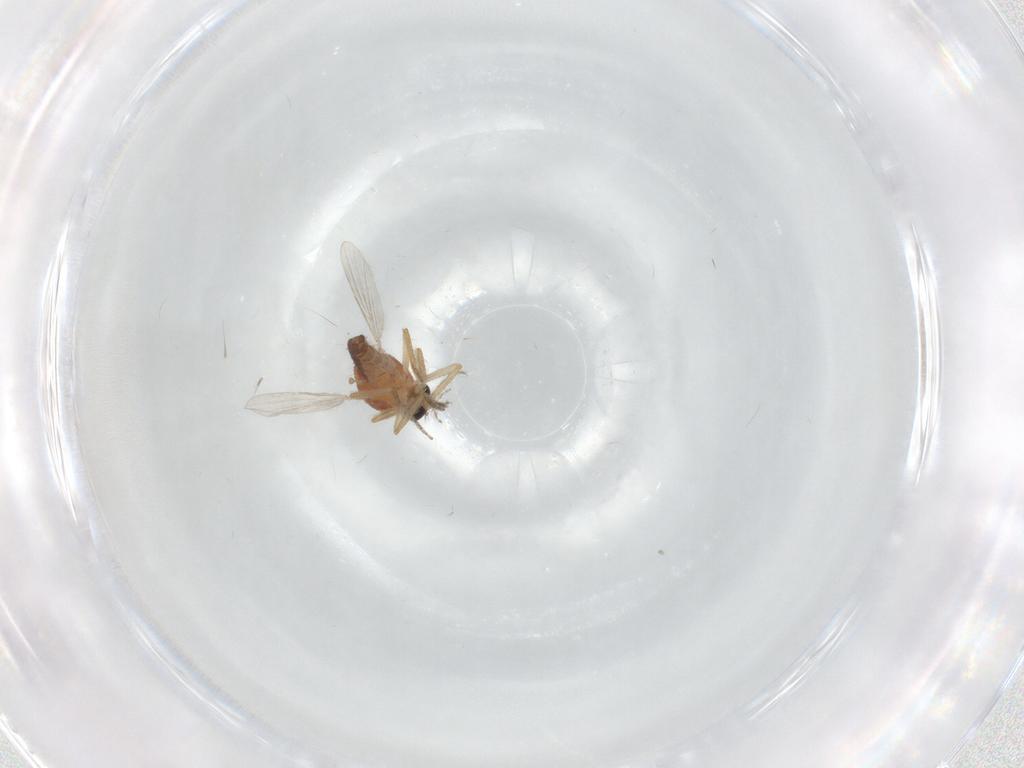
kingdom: Animalia
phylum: Arthropoda
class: Insecta
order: Diptera
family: Ceratopogonidae
